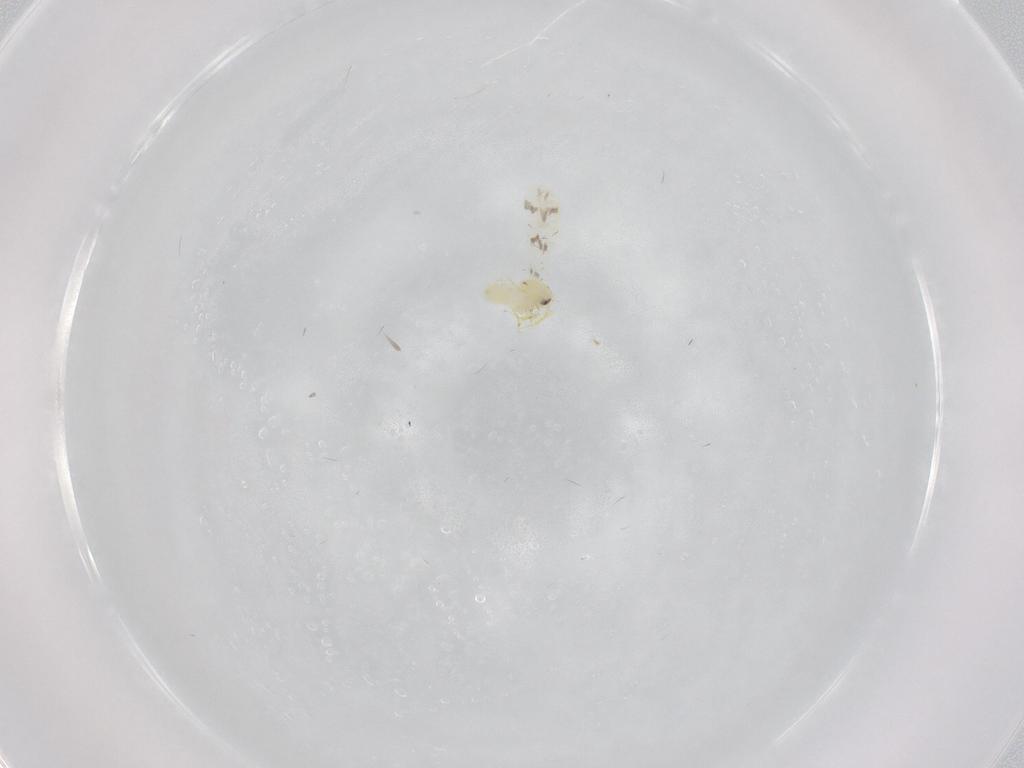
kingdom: Animalia
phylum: Arthropoda
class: Insecta
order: Hemiptera
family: Aleyrodidae
